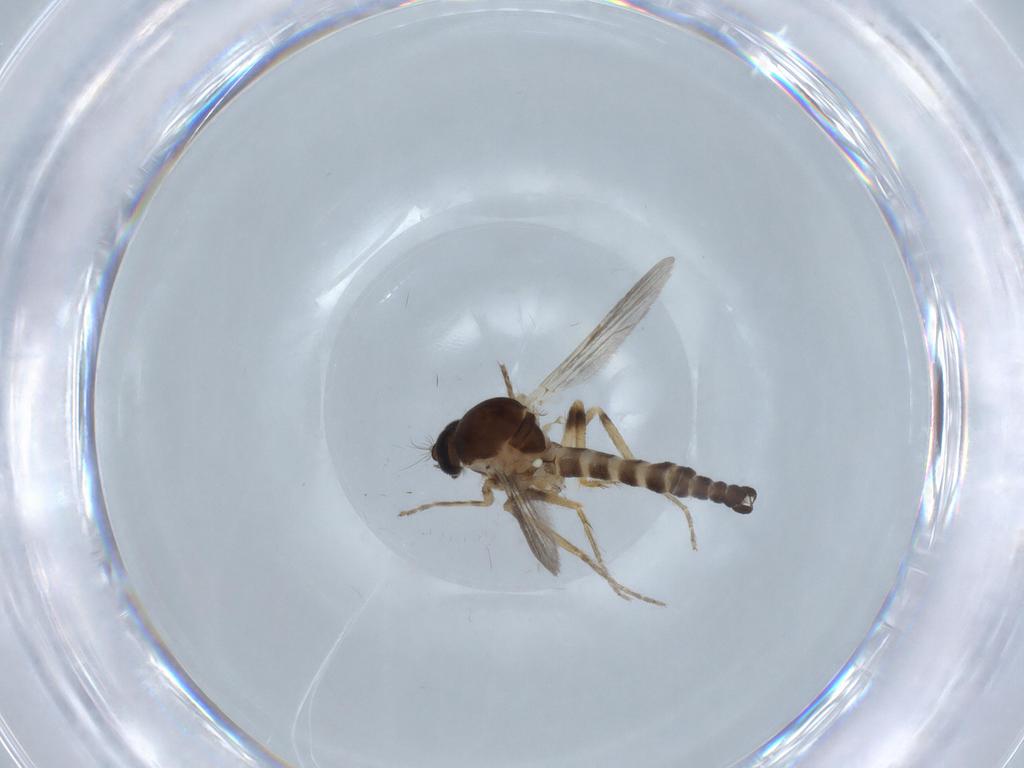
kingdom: Animalia
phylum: Arthropoda
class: Insecta
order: Diptera
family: Ceratopogonidae
